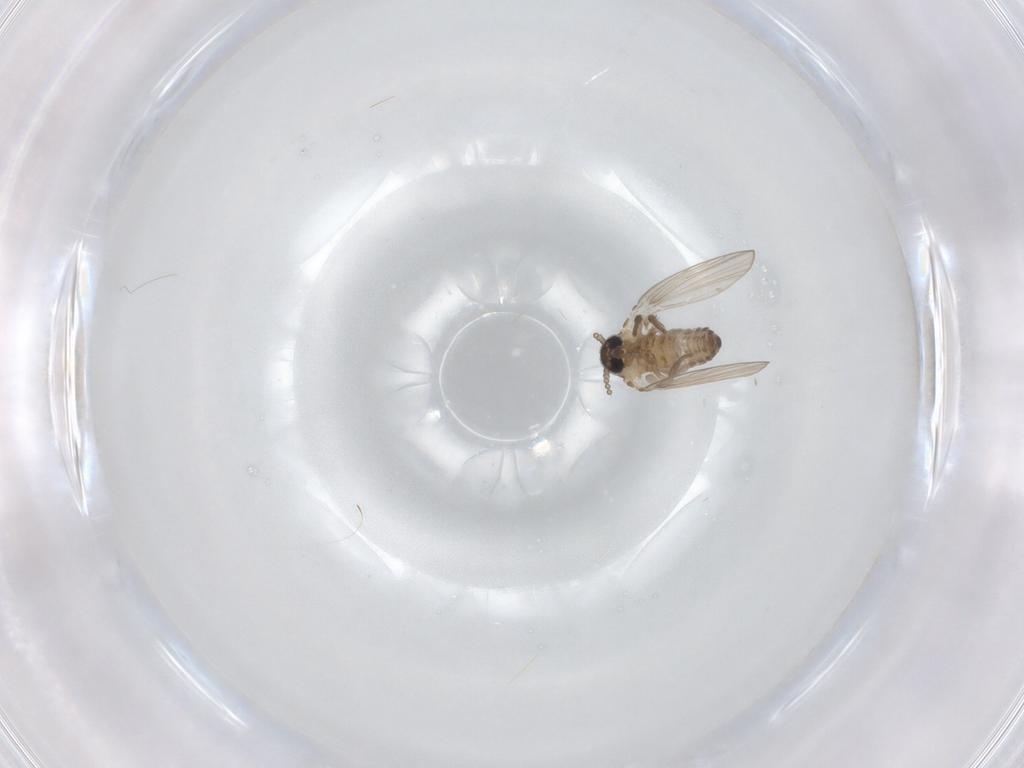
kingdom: Animalia
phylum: Arthropoda
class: Insecta
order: Diptera
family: Psychodidae
